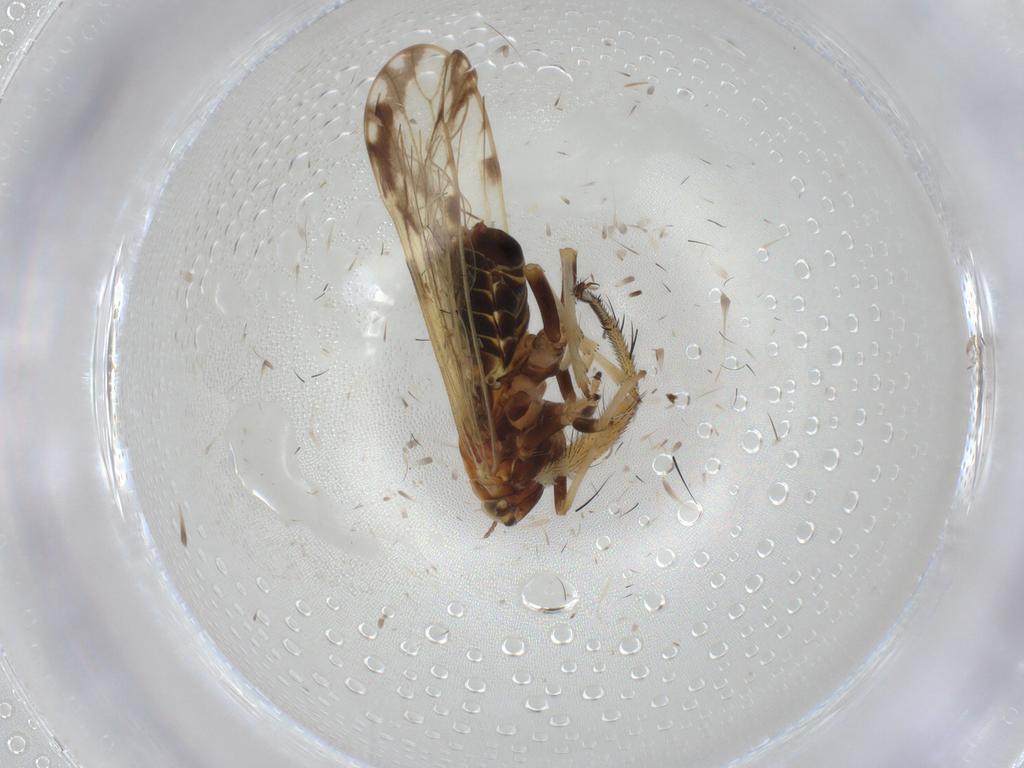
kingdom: Animalia
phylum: Arthropoda
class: Insecta
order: Hemiptera
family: Delphacidae
